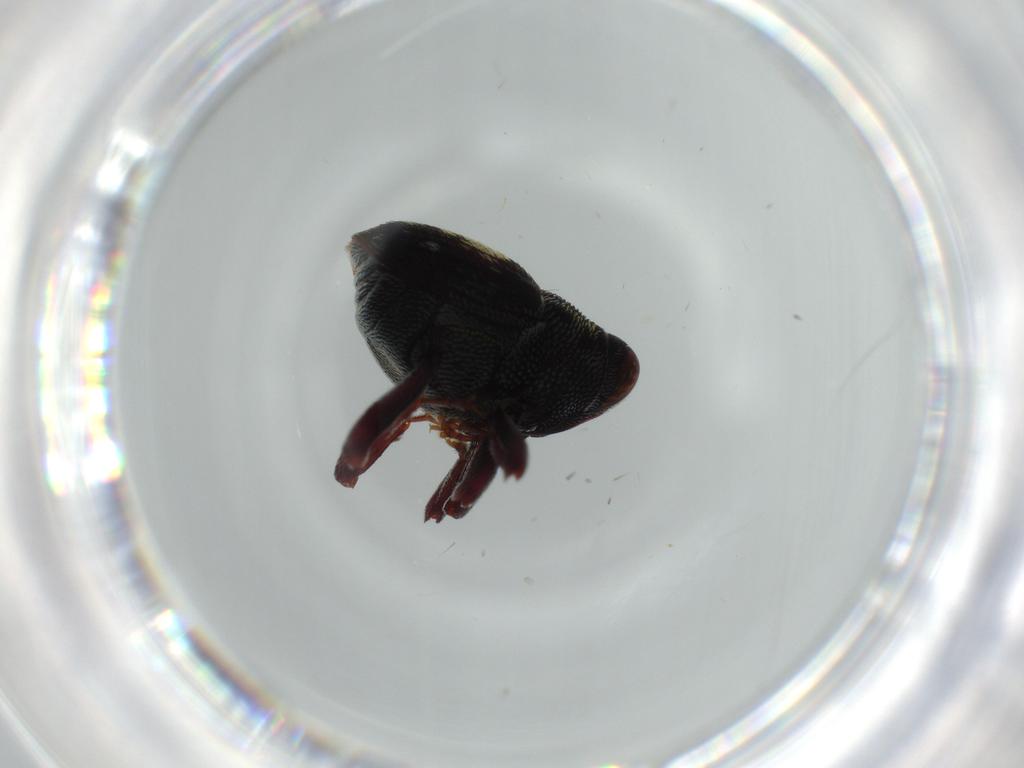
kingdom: Animalia
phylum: Arthropoda
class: Insecta
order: Coleoptera
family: Curculionidae
